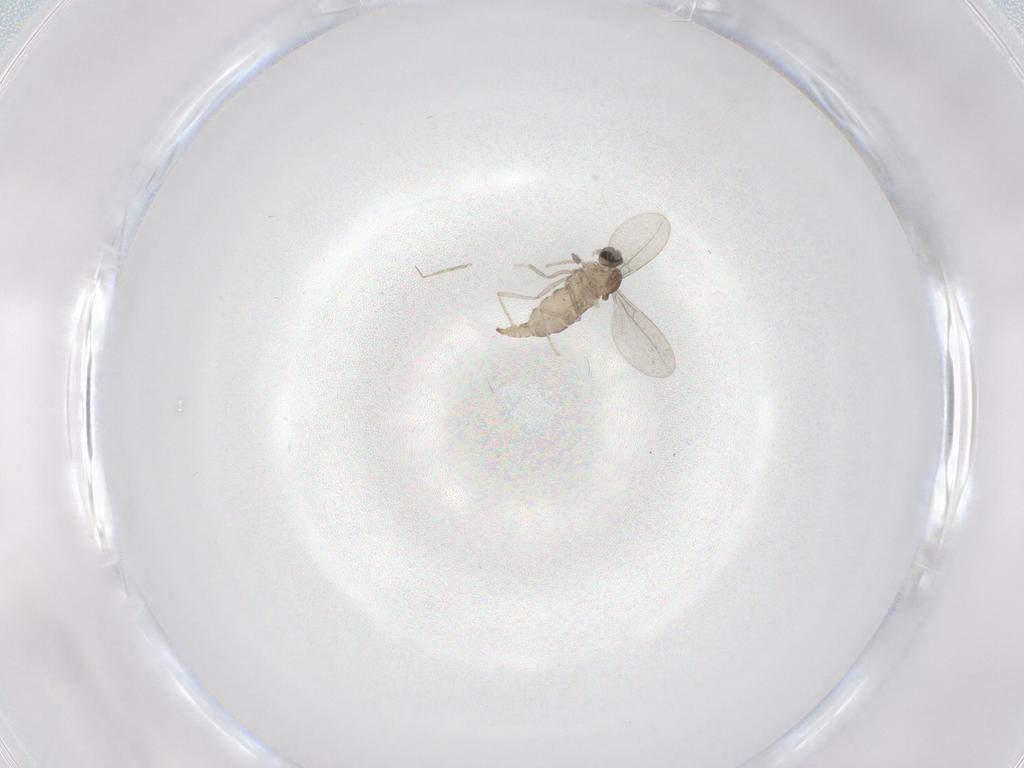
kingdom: Animalia
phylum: Arthropoda
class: Insecta
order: Diptera
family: Cecidomyiidae
